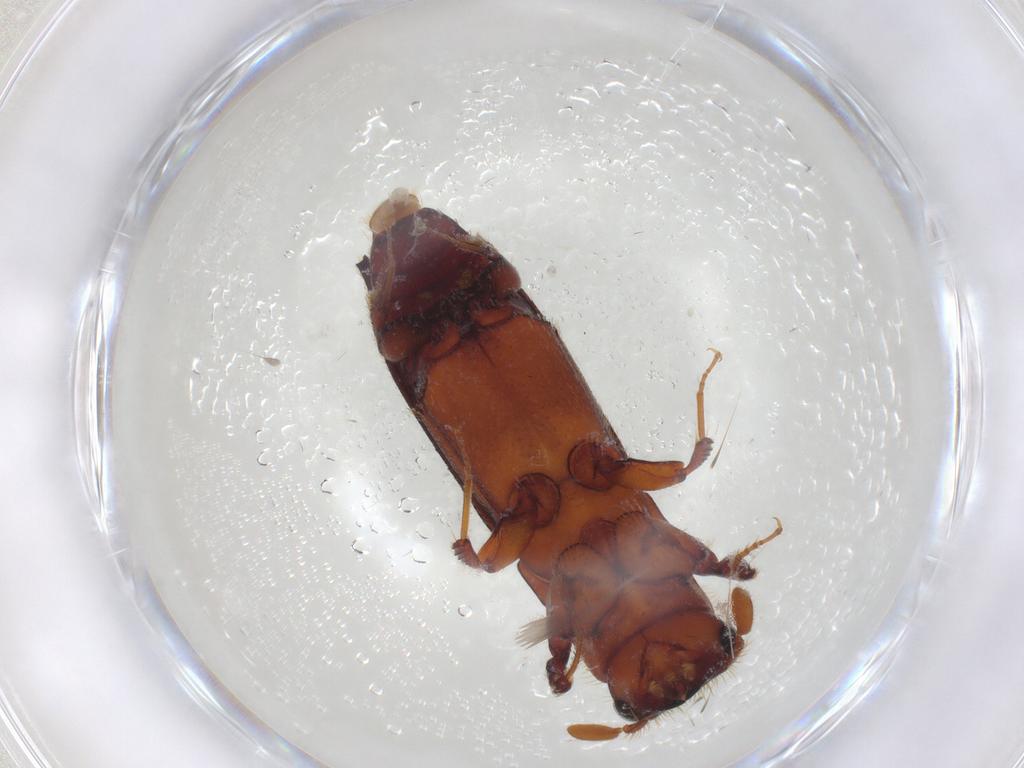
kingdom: Animalia
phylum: Arthropoda
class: Insecta
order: Coleoptera
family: Curculionidae
